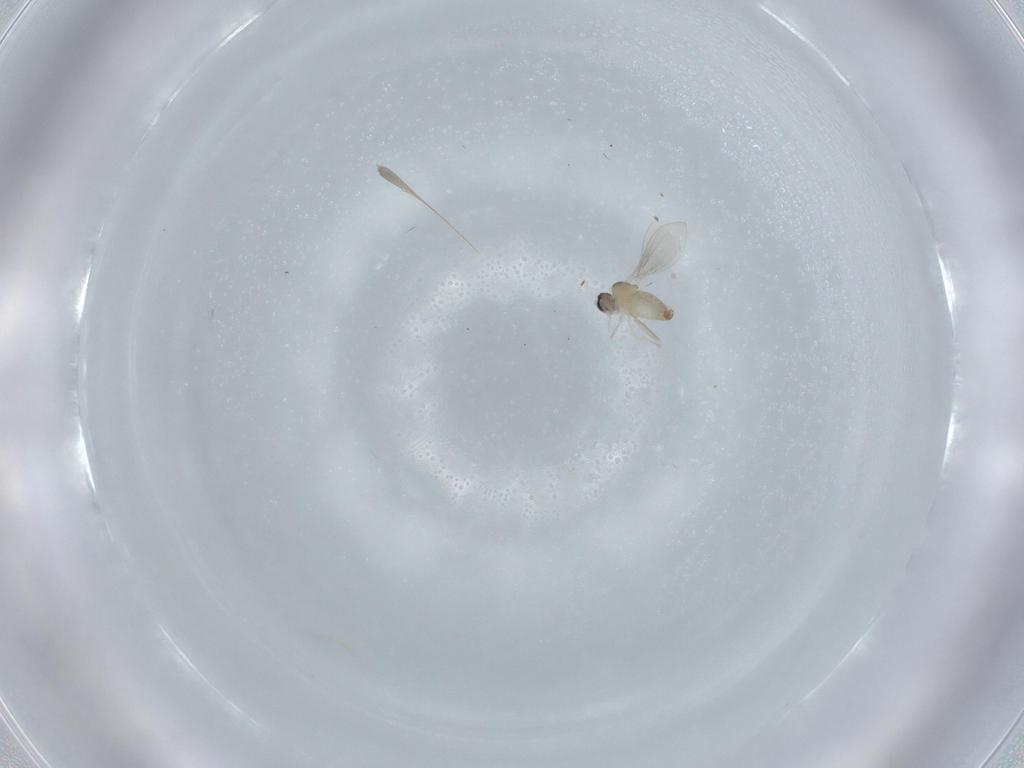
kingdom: Animalia
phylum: Arthropoda
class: Insecta
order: Diptera
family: Cecidomyiidae
